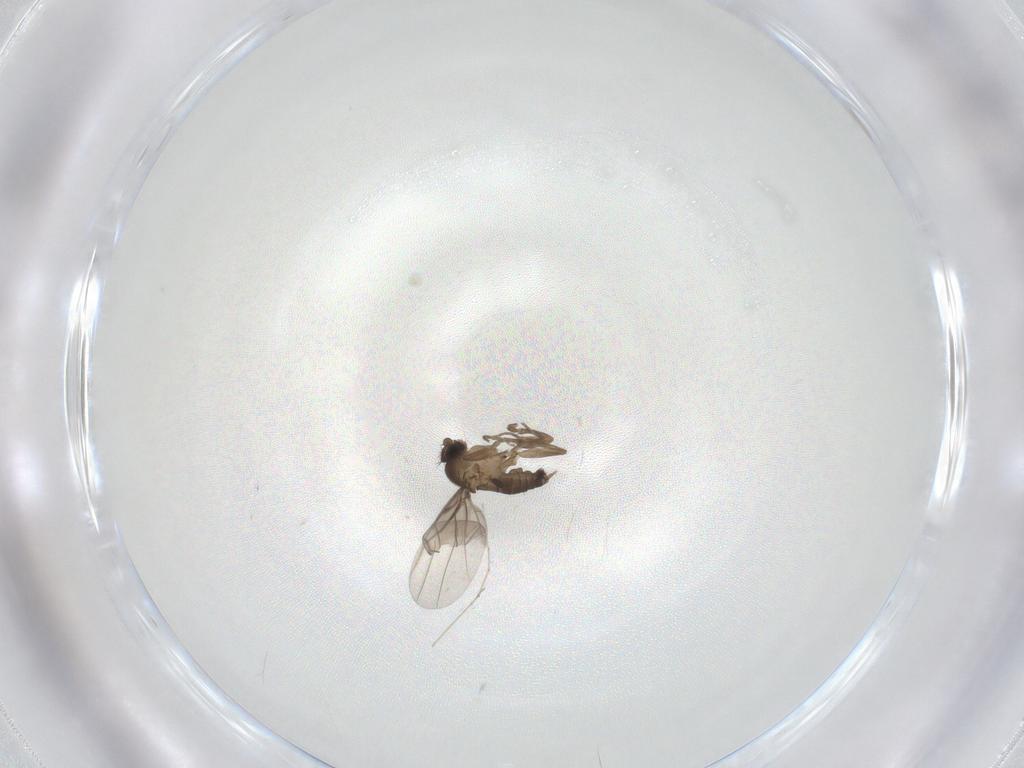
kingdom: Animalia
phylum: Arthropoda
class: Insecta
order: Diptera
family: Phoridae
